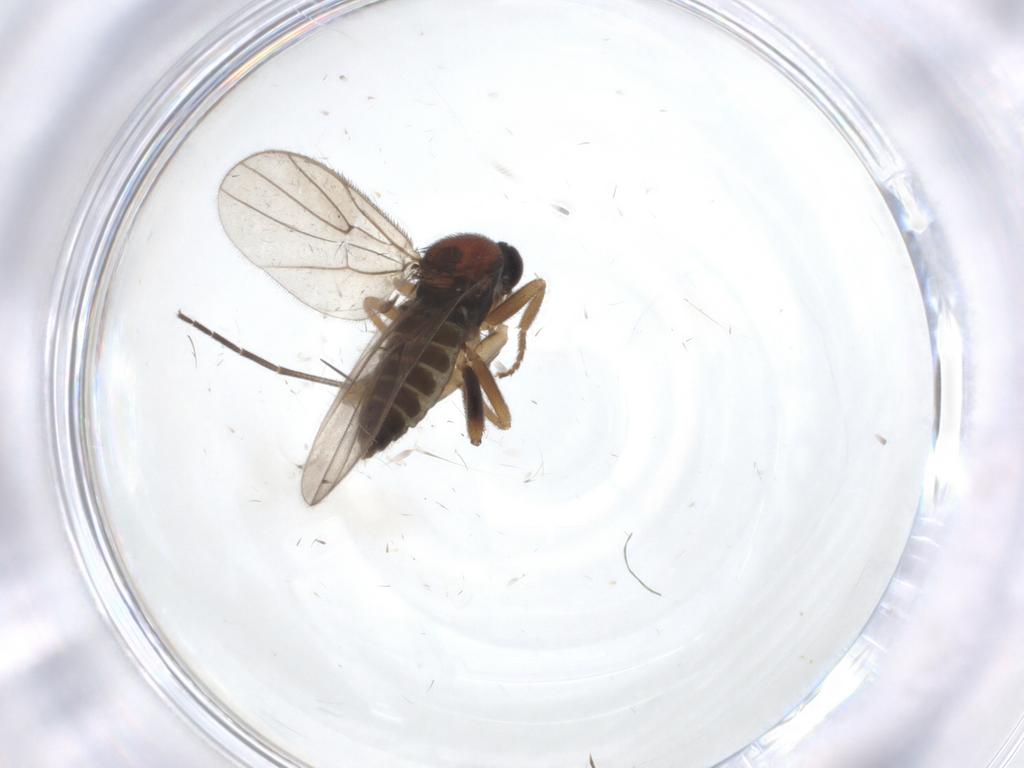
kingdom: Animalia
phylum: Arthropoda
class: Insecta
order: Diptera
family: Hybotidae
